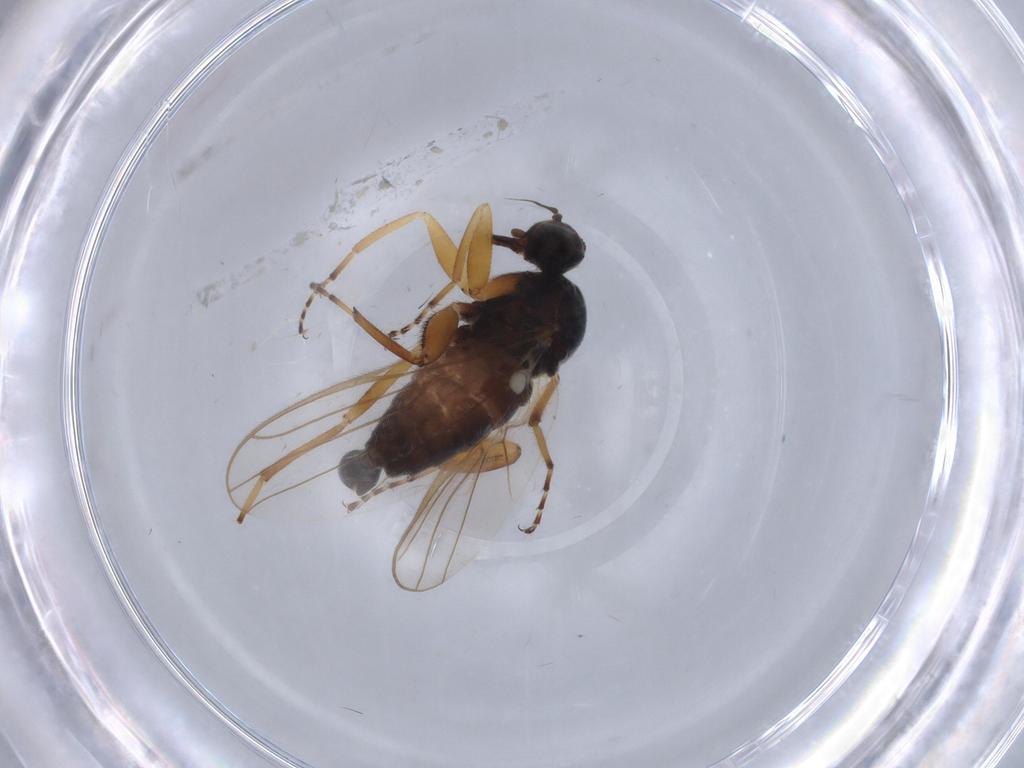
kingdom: Animalia
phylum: Arthropoda
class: Insecta
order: Diptera
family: Hybotidae
